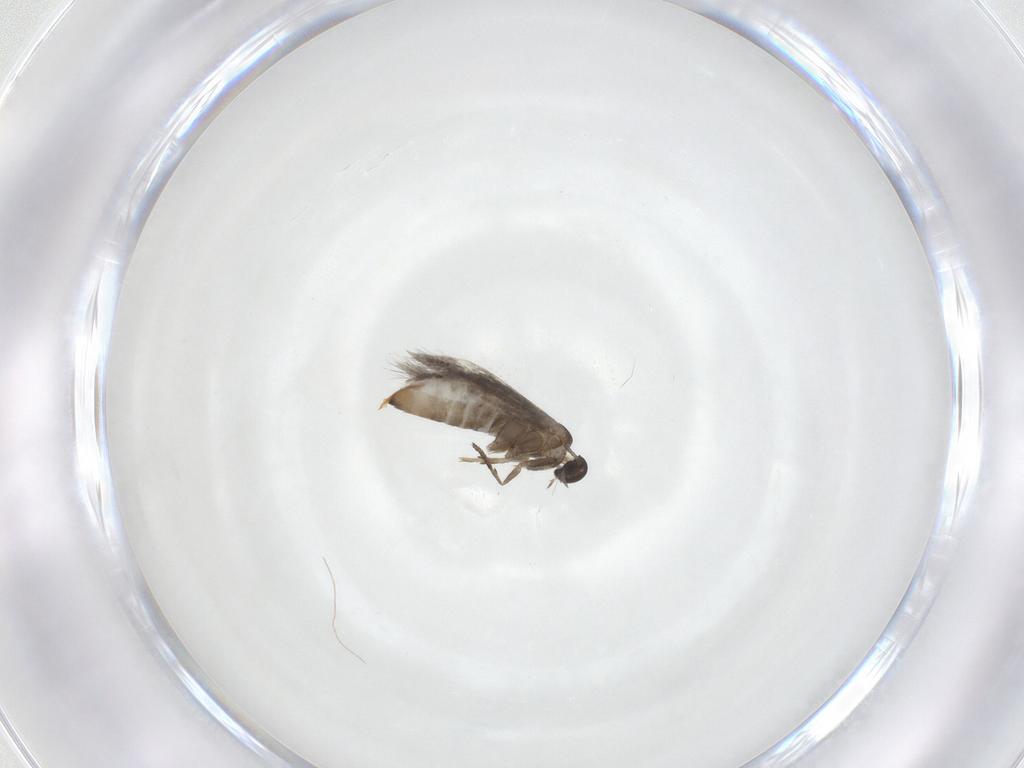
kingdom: Animalia
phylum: Arthropoda
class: Insecta
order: Lepidoptera
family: Heliozelidae
